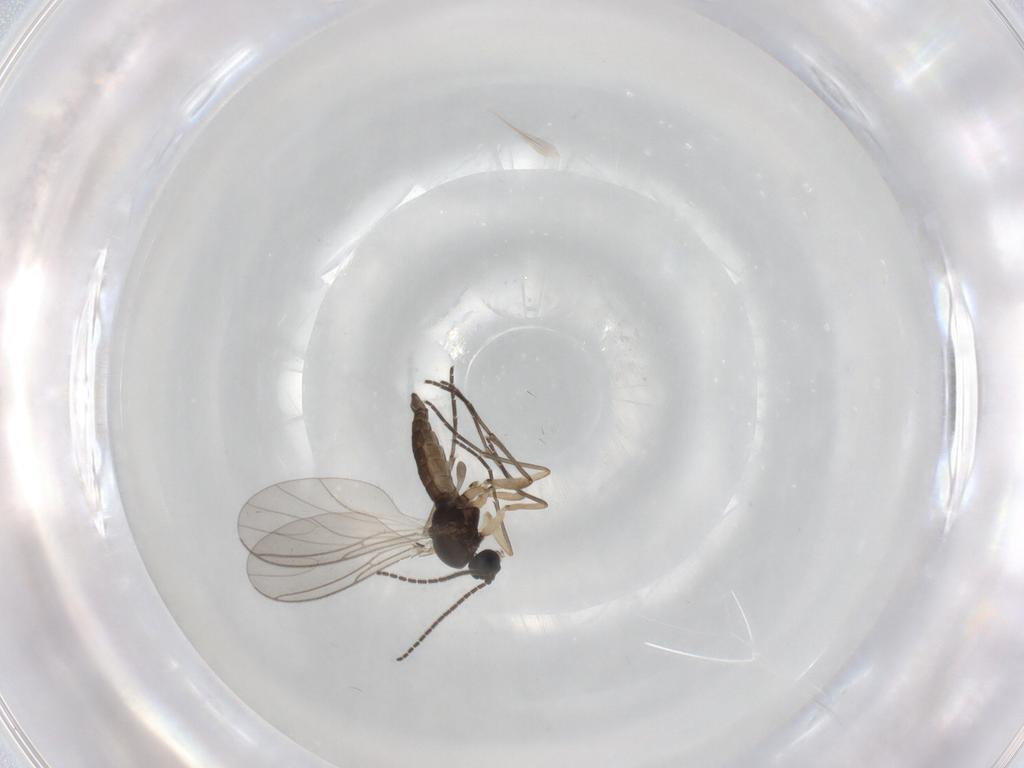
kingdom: Animalia
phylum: Arthropoda
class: Insecta
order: Diptera
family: Sciaridae
